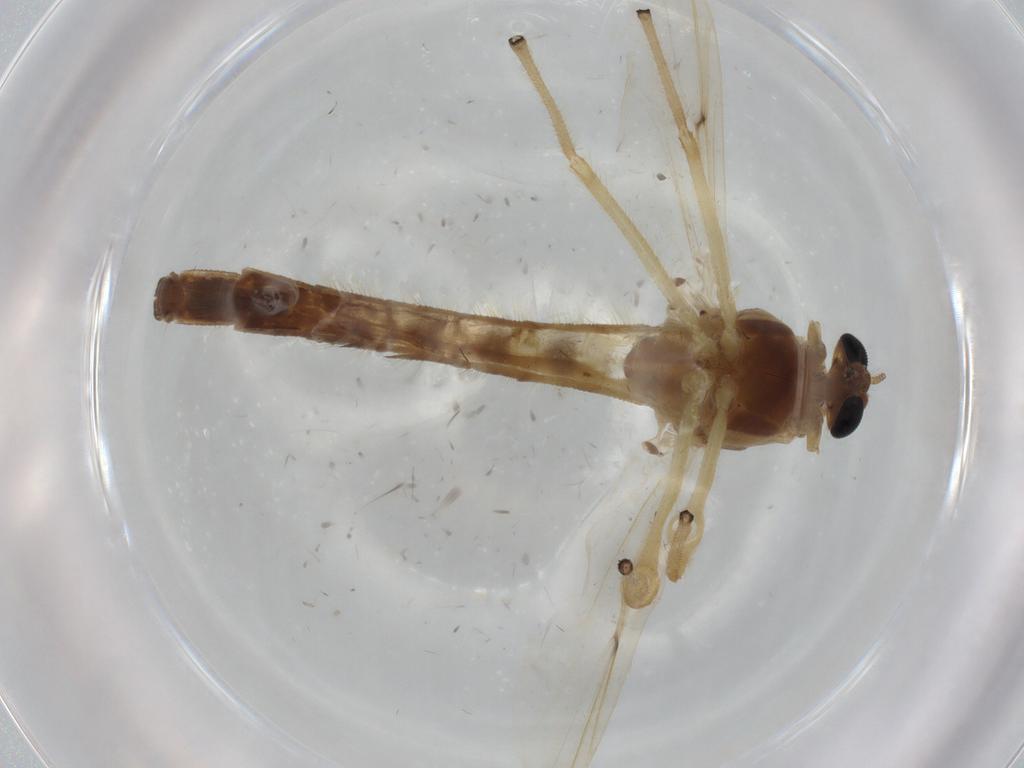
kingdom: Animalia
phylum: Arthropoda
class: Insecta
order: Diptera
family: Chironomidae
